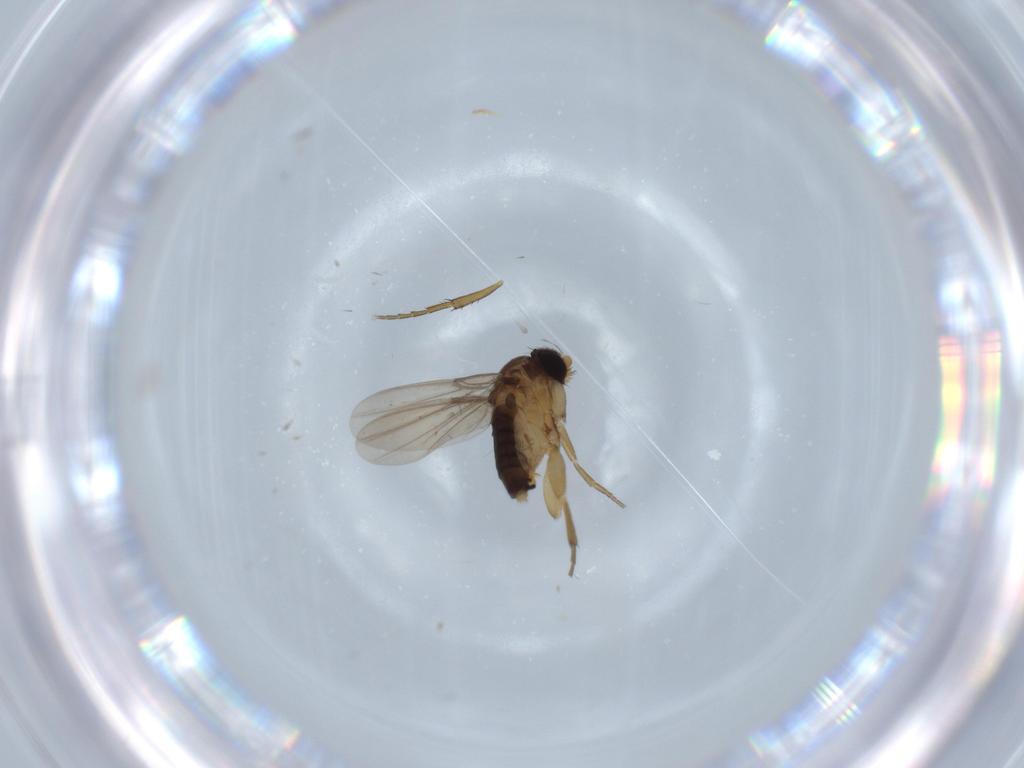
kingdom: Animalia
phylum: Arthropoda
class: Insecta
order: Diptera
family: Phoridae
